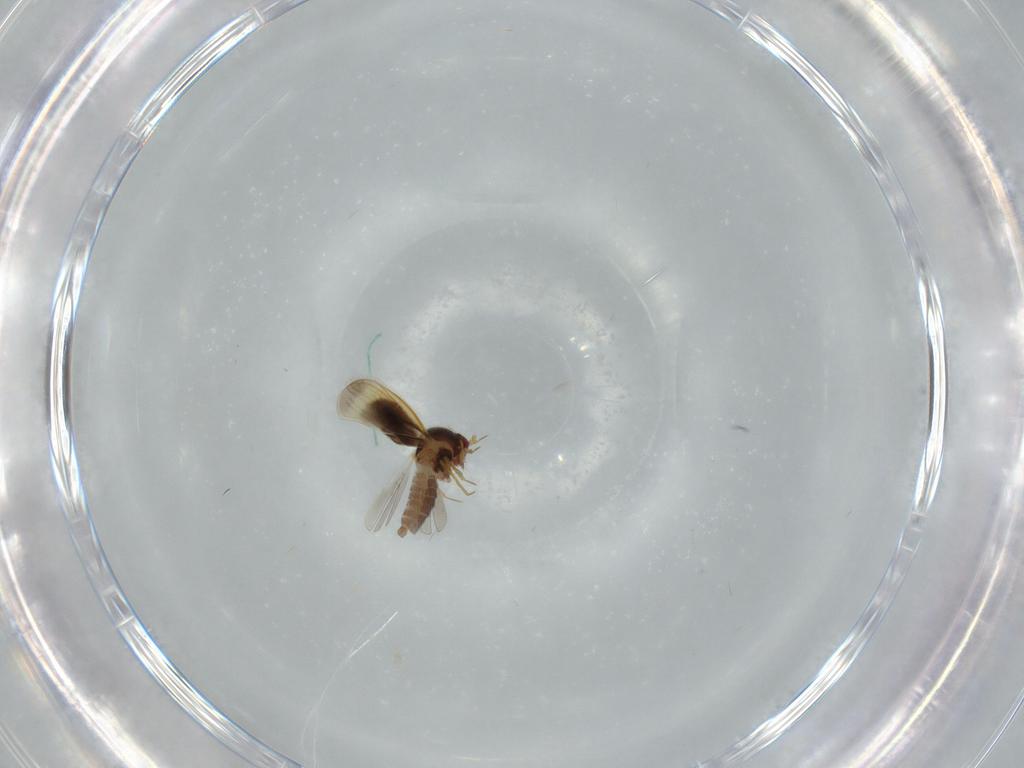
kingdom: Animalia
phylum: Arthropoda
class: Insecta
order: Hemiptera
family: Schizopteridae
